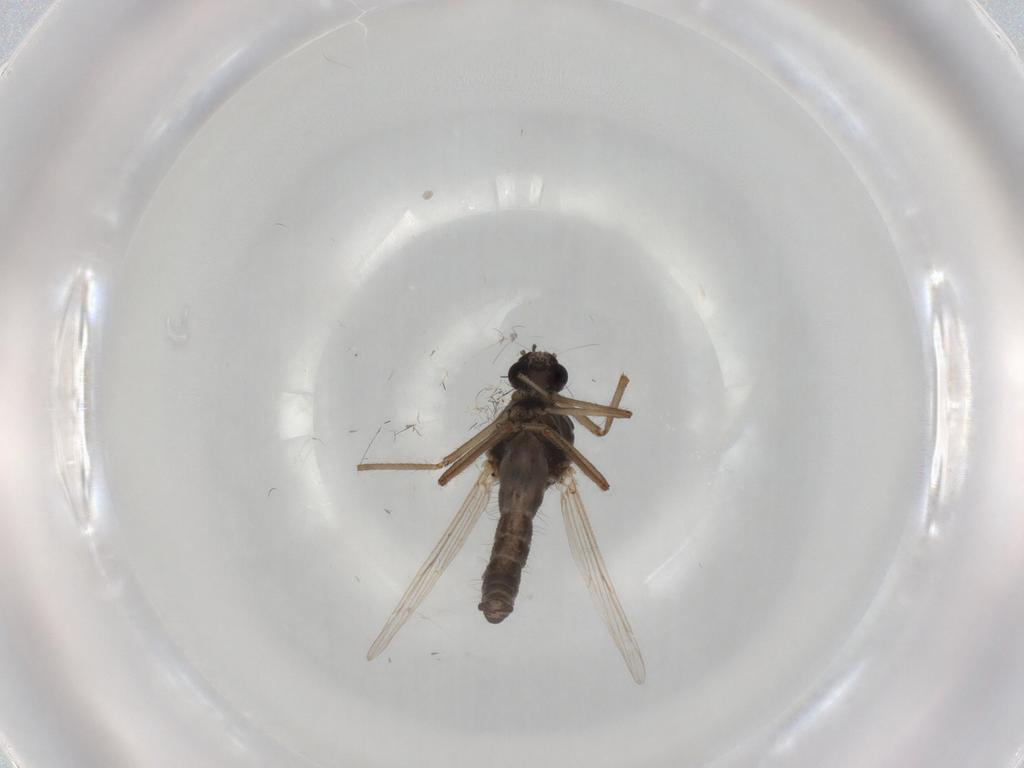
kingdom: Animalia
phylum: Arthropoda
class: Insecta
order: Diptera
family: Ceratopogonidae
